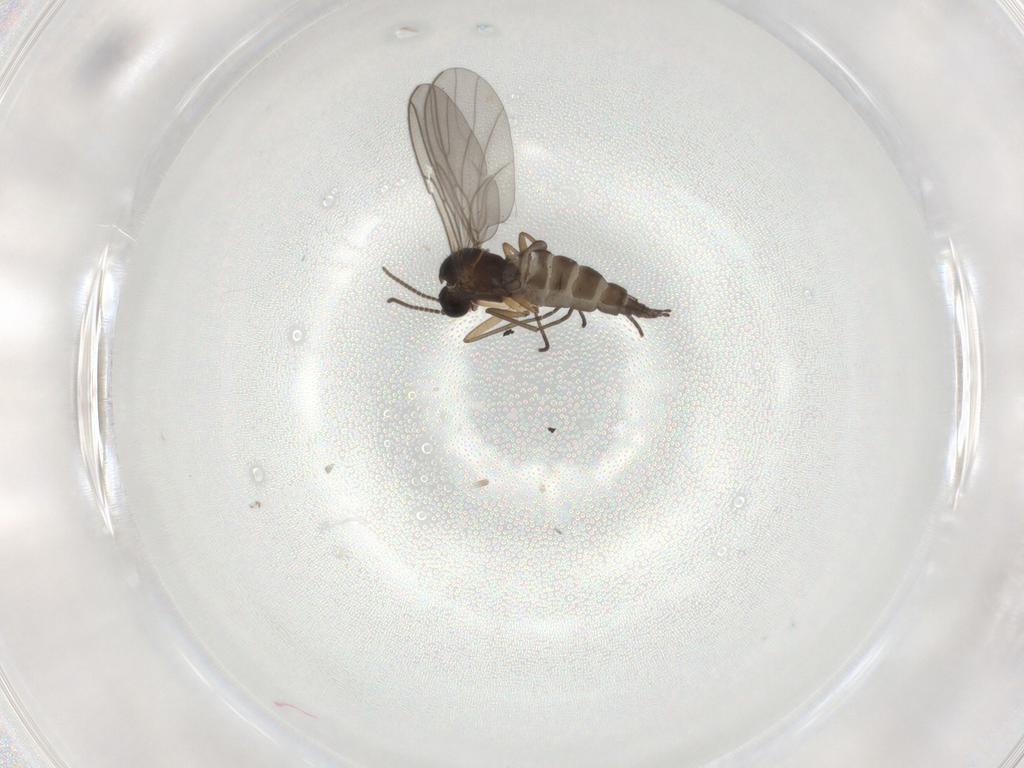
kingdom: Animalia
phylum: Arthropoda
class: Insecta
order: Diptera
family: Sciaridae
